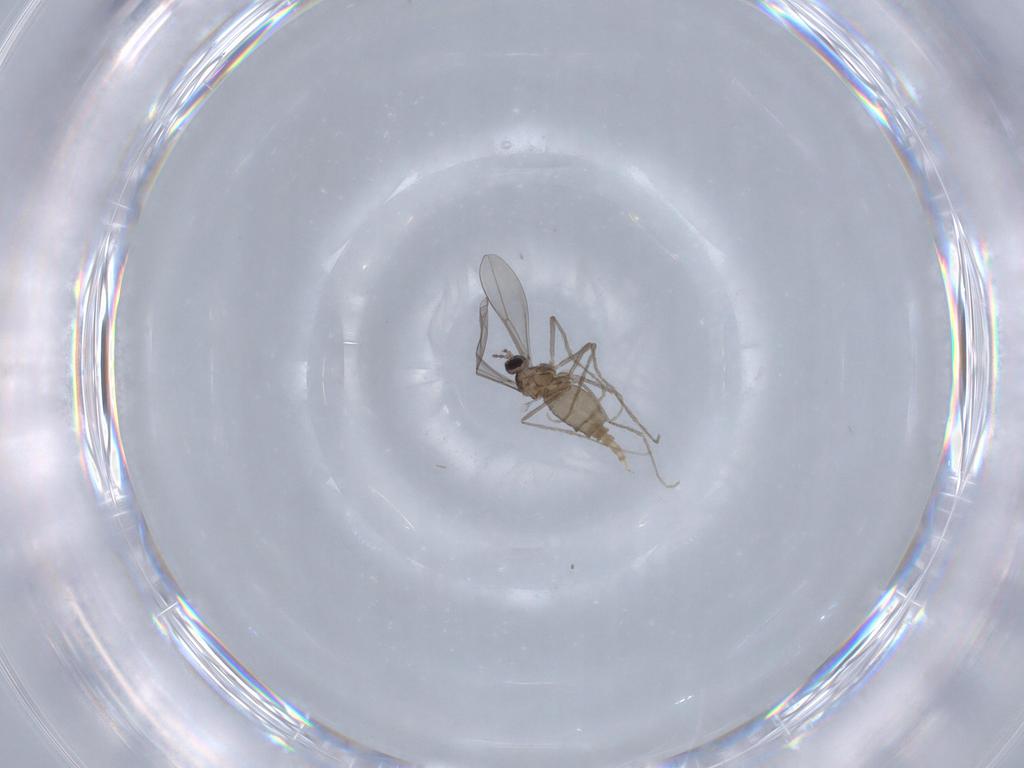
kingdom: Animalia
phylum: Arthropoda
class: Insecta
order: Diptera
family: Cecidomyiidae
